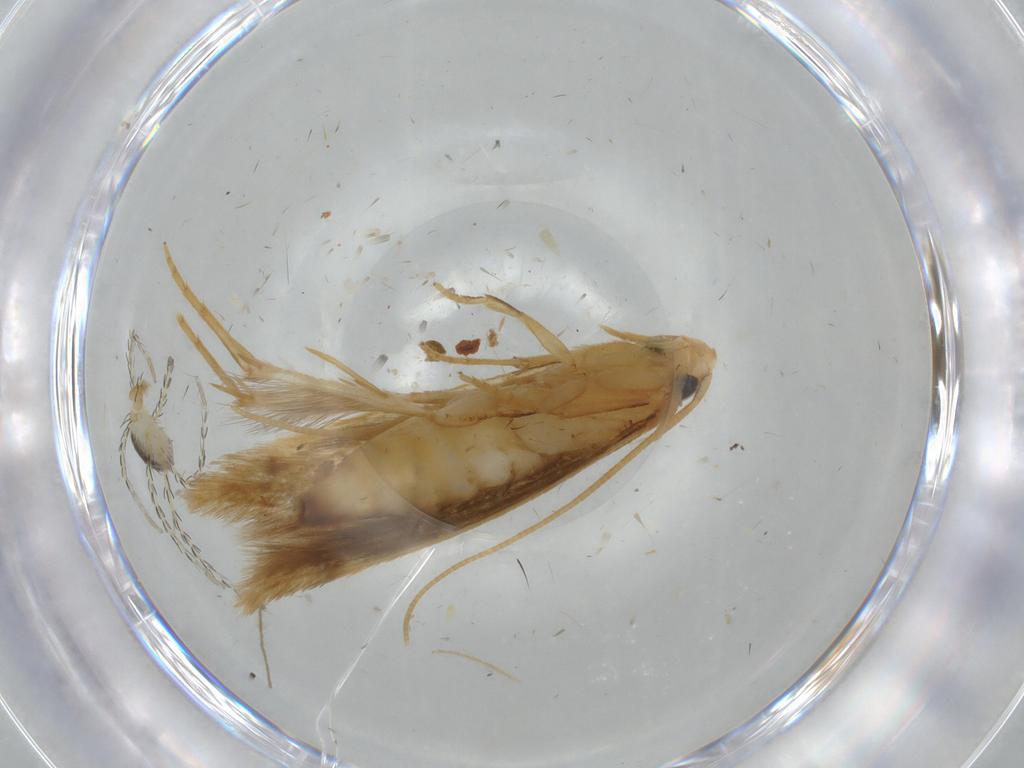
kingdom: Animalia
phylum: Arthropoda
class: Insecta
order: Lepidoptera
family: Tineidae
